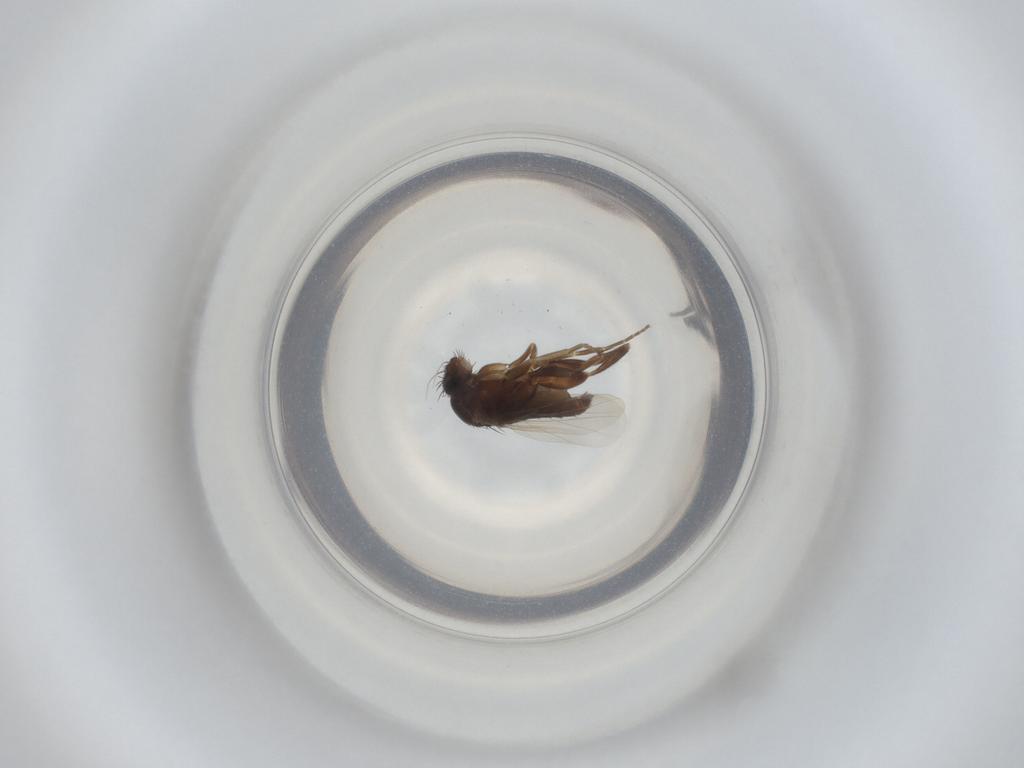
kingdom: Animalia
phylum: Arthropoda
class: Insecta
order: Diptera
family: Phoridae
